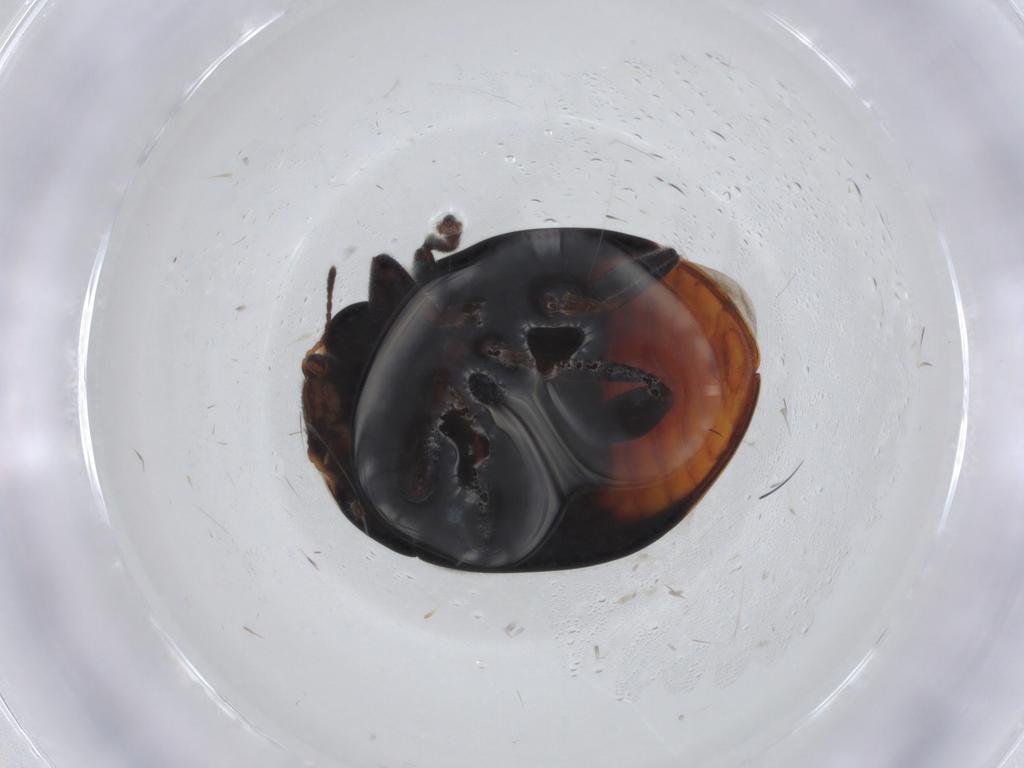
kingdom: Animalia
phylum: Arthropoda
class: Insecta
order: Coleoptera
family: Coccinellidae
